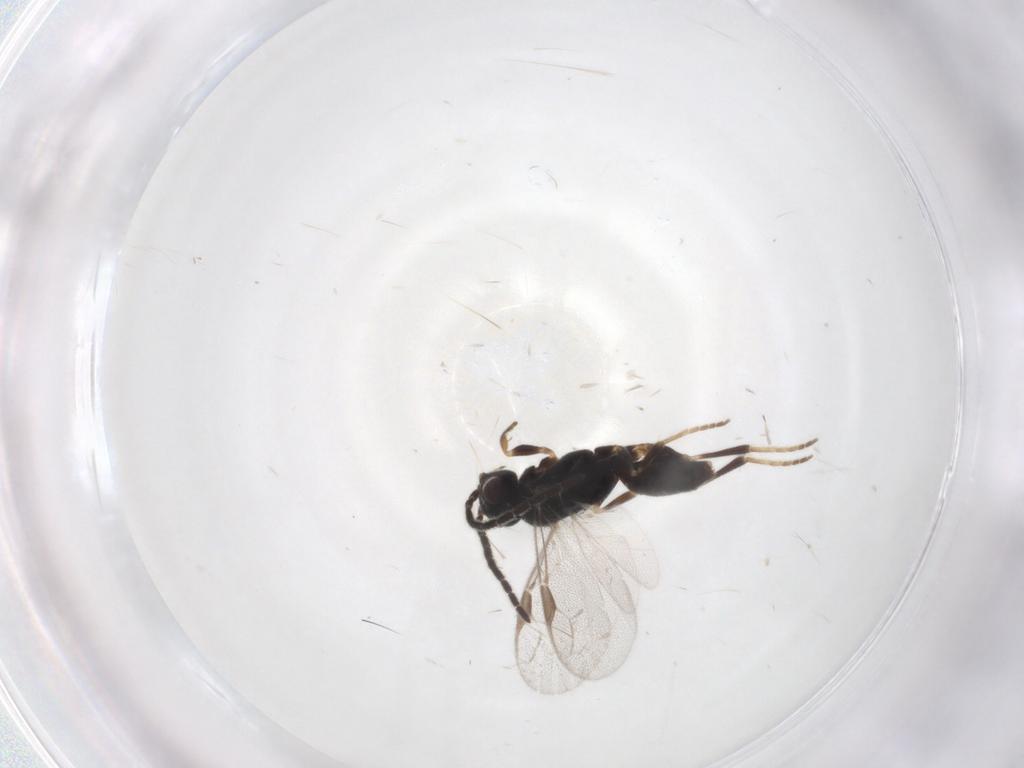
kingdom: Animalia
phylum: Arthropoda
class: Insecta
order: Hymenoptera
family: Dryinidae
